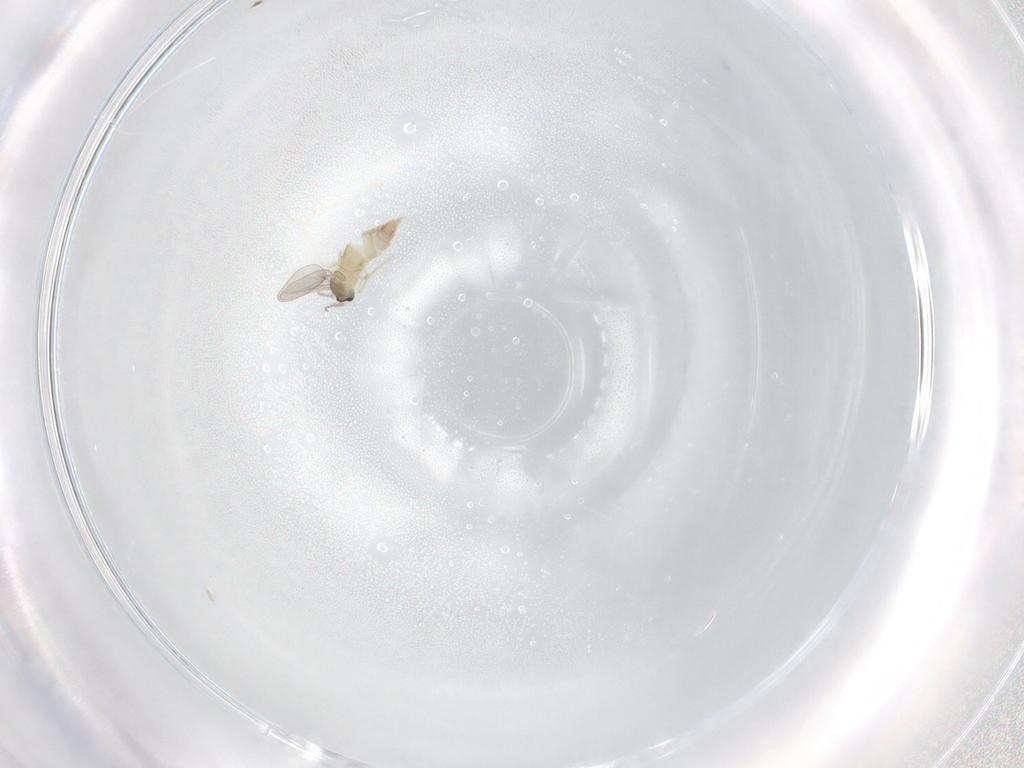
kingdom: Animalia
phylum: Arthropoda
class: Insecta
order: Diptera
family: Cecidomyiidae
